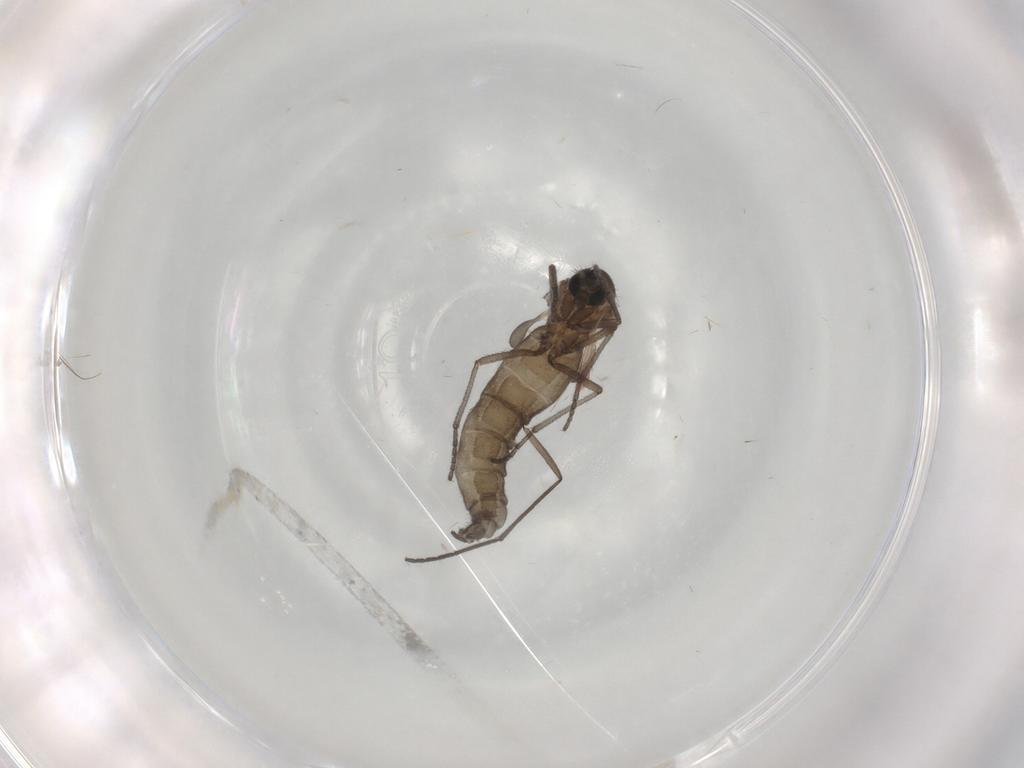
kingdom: Animalia
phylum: Arthropoda
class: Insecta
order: Diptera
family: Sciaridae
